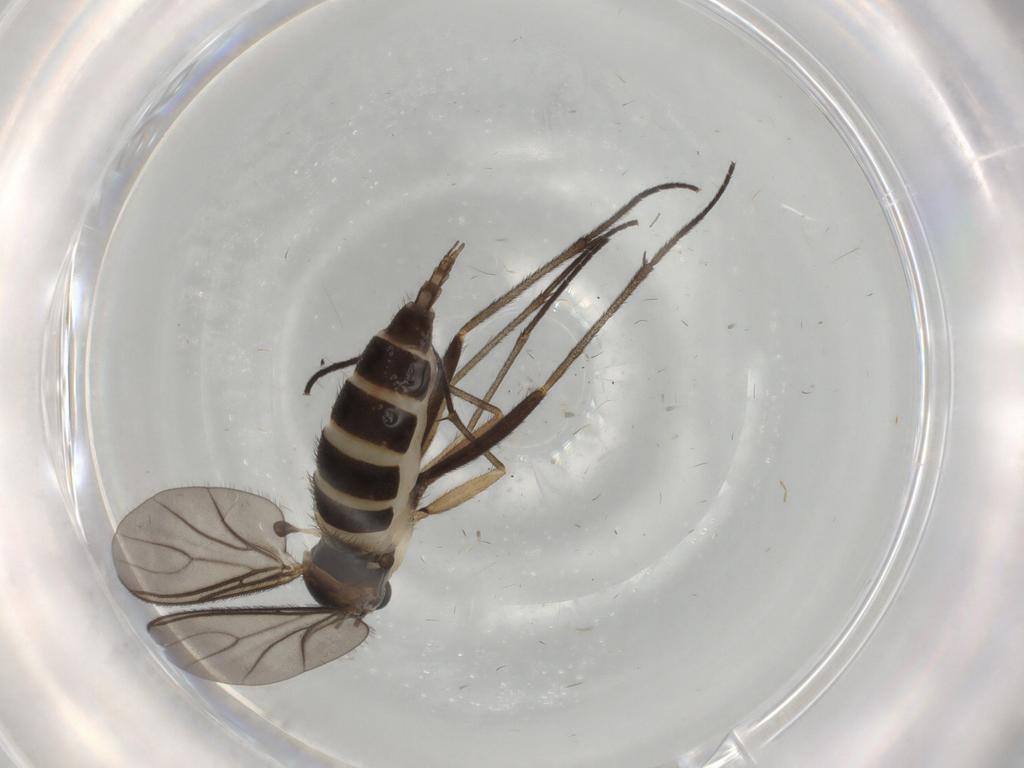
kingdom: Animalia
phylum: Arthropoda
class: Insecta
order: Diptera
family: Sciaridae
